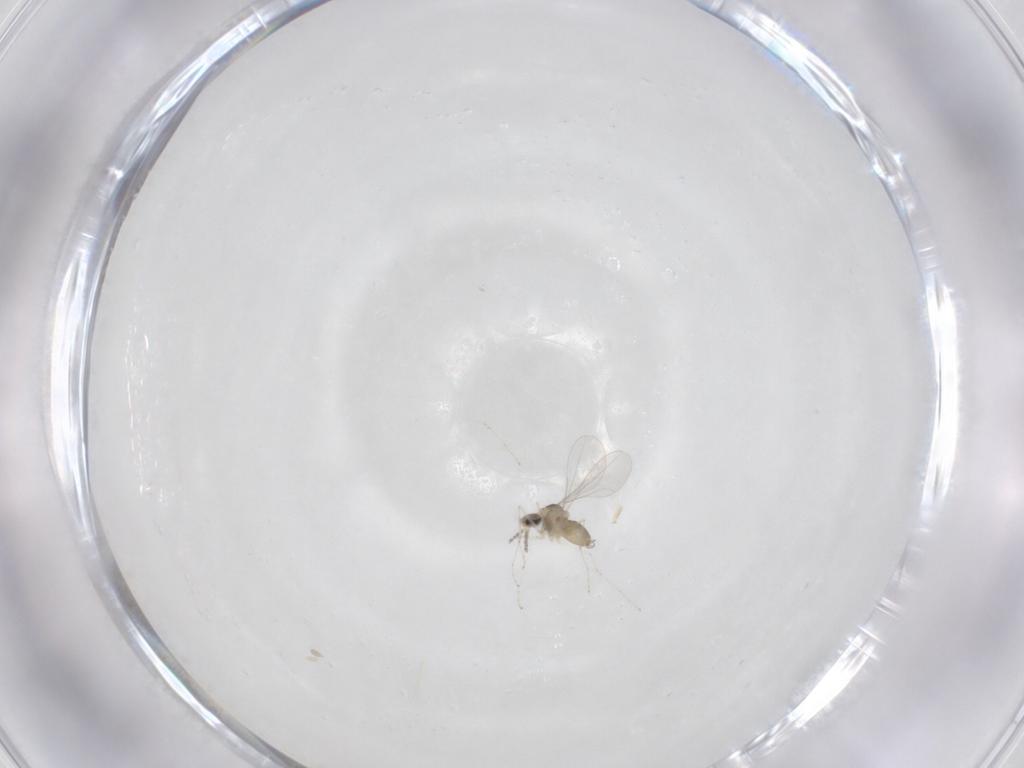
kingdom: Animalia
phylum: Arthropoda
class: Insecta
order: Diptera
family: Cecidomyiidae
